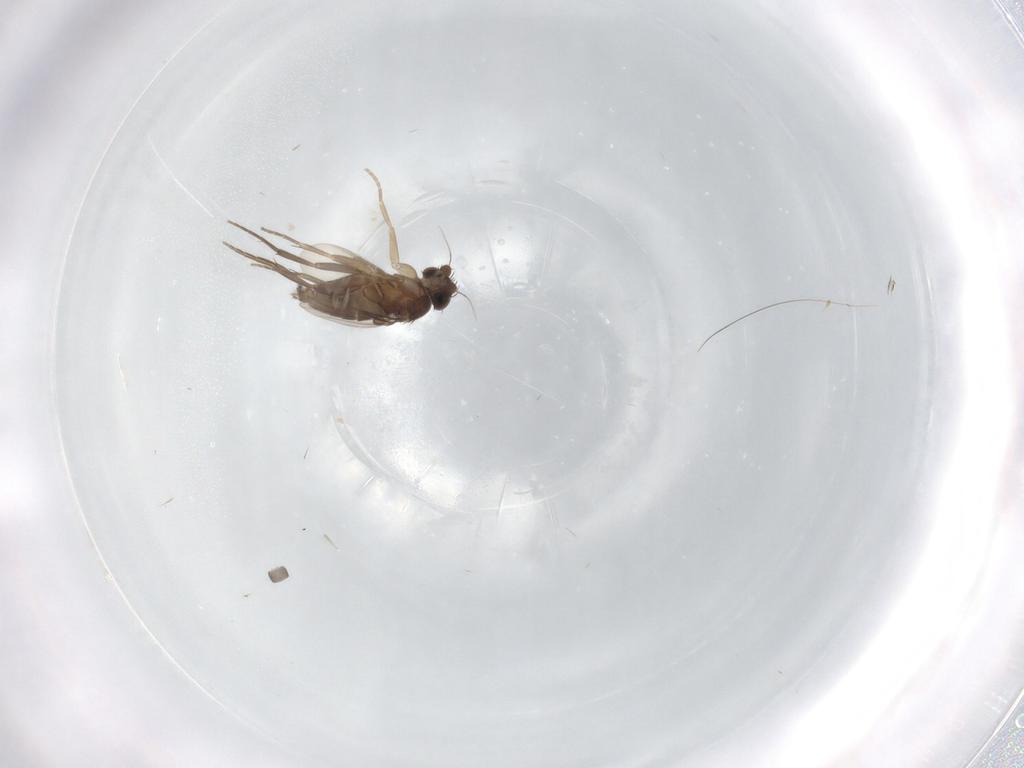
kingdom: Animalia
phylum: Arthropoda
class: Insecta
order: Diptera
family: Phoridae
